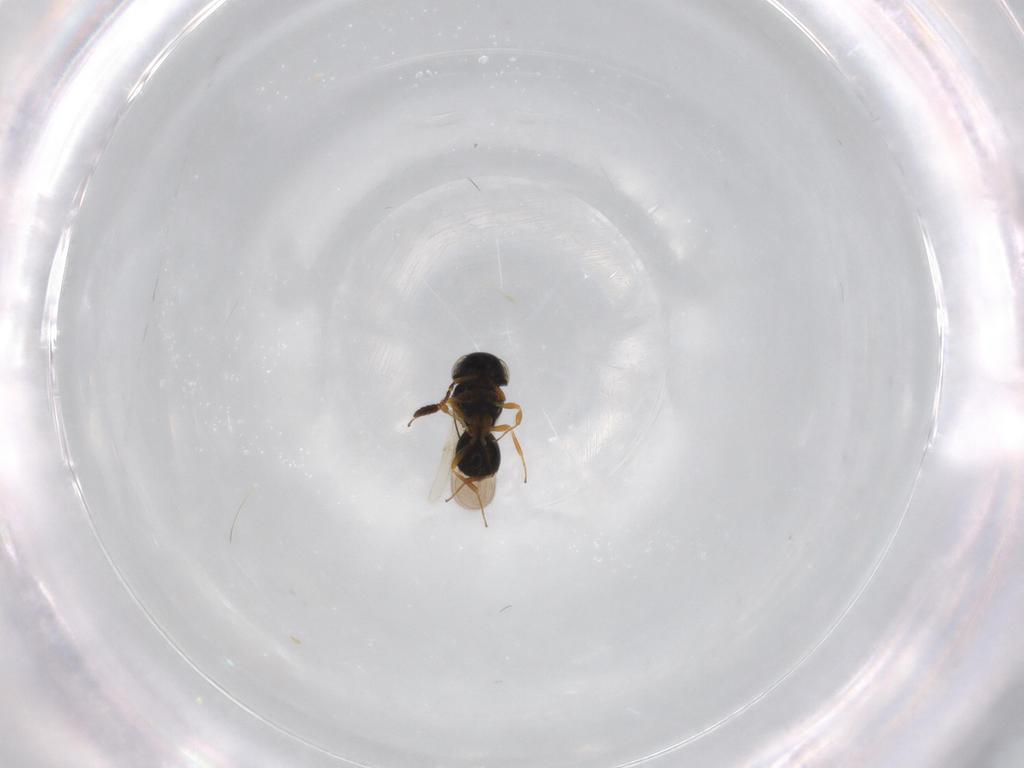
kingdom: Animalia
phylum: Arthropoda
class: Insecta
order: Hymenoptera
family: Scelionidae
